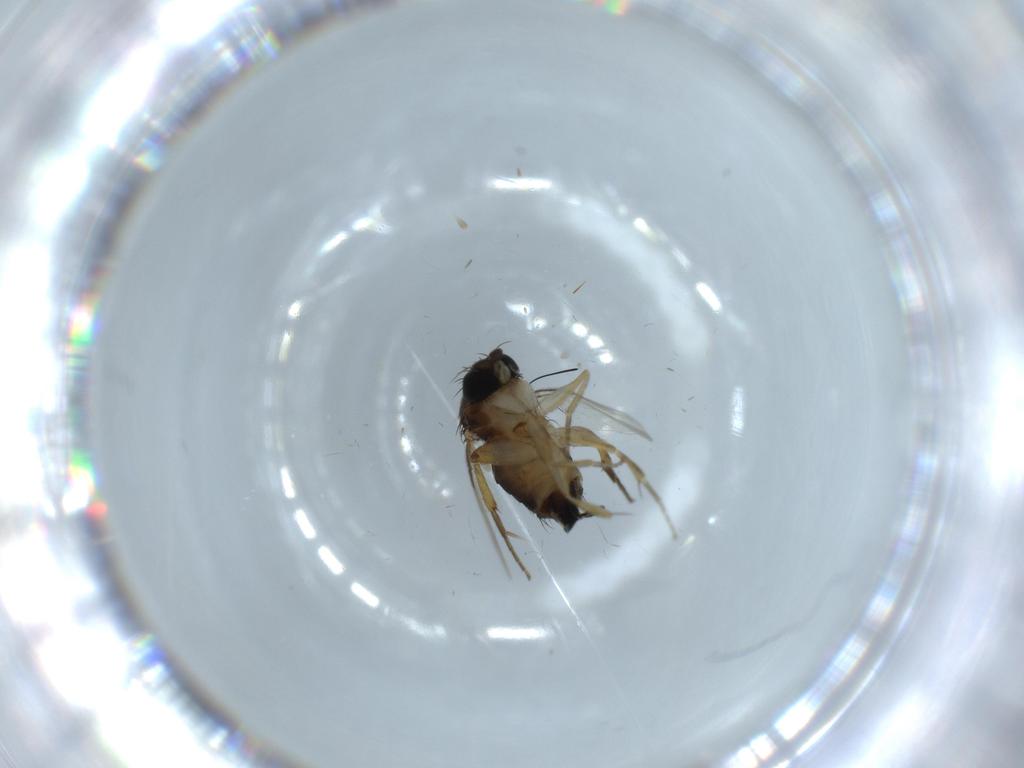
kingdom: Animalia
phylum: Arthropoda
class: Insecta
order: Diptera
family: Phoridae
